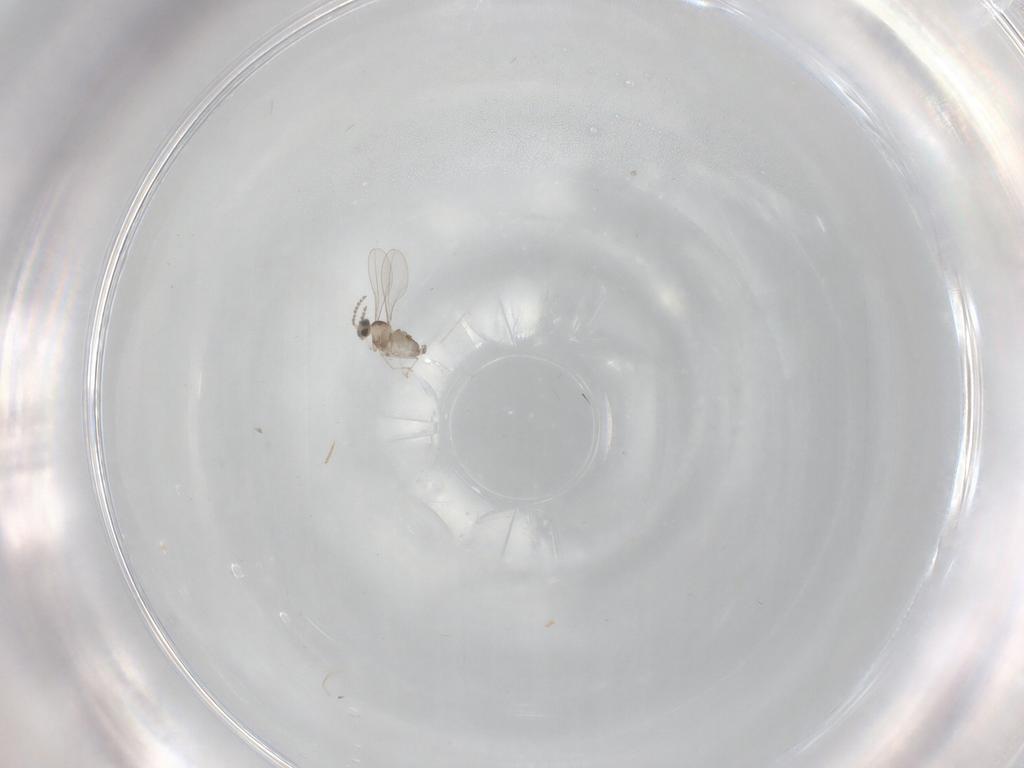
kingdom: Animalia
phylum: Arthropoda
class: Insecta
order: Diptera
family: Cecidomyiidae
